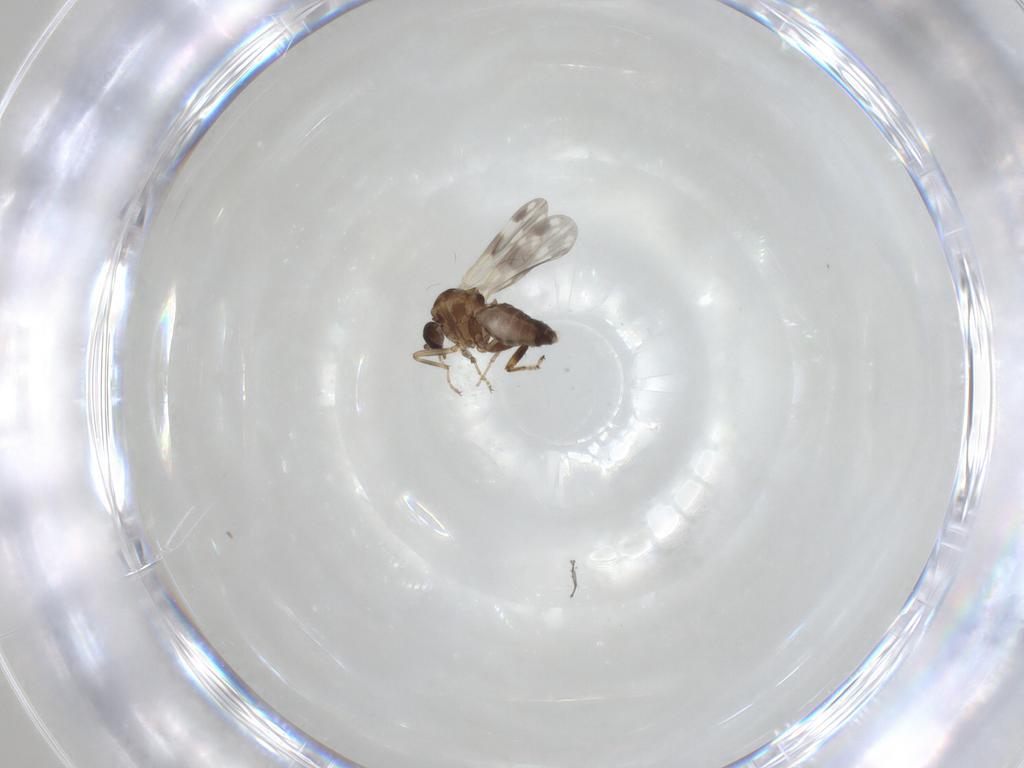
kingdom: Animalia
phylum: Arthropoda
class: Insecta
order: Diptera
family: Ceratopogonidae
